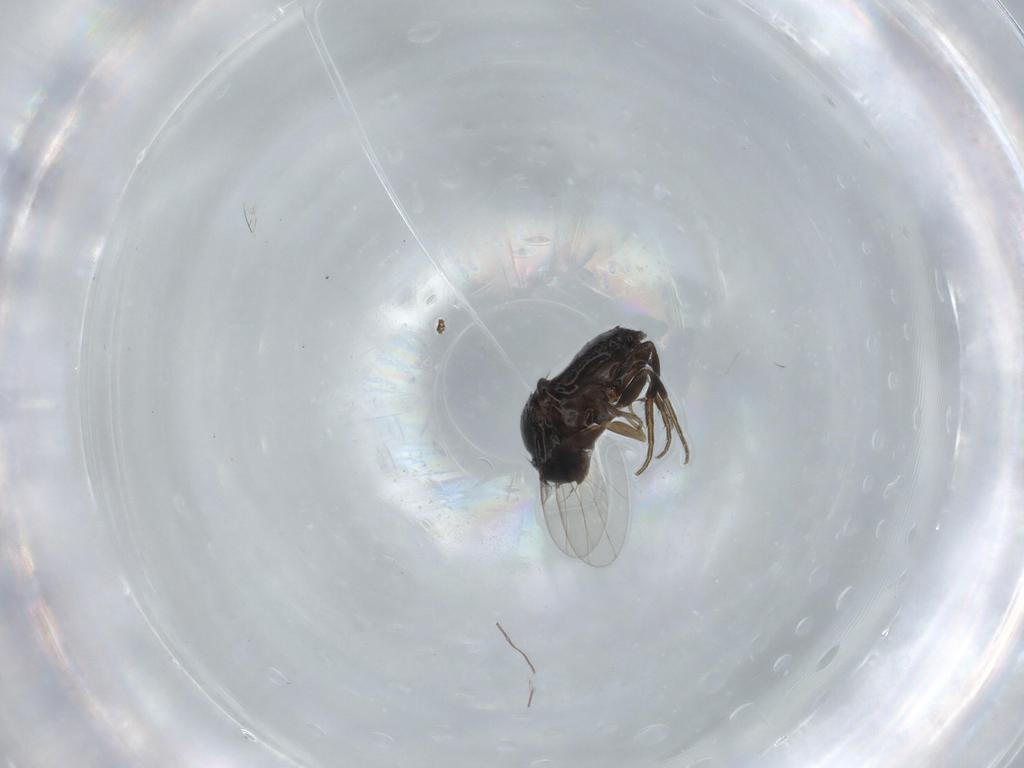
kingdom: Animalia
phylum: Arthropoda
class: Insecta
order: Diptera
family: Phoridae
